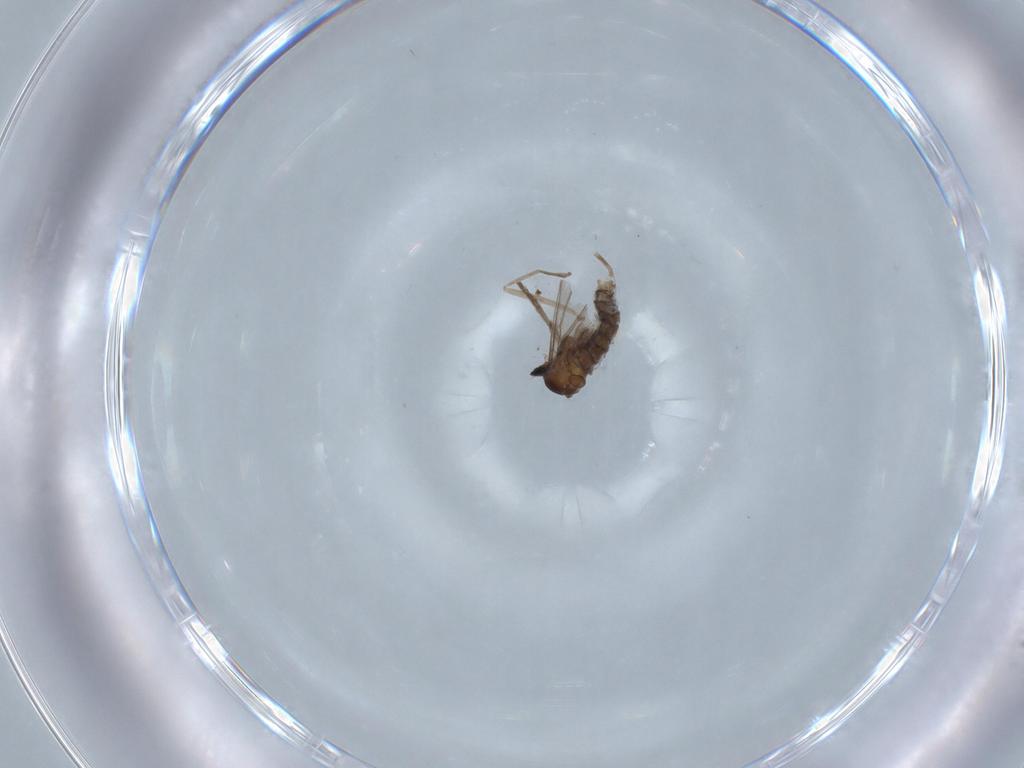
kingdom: Animalia
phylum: Arthropoda
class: Insecta
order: Diptera
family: Cecidomyiidae
